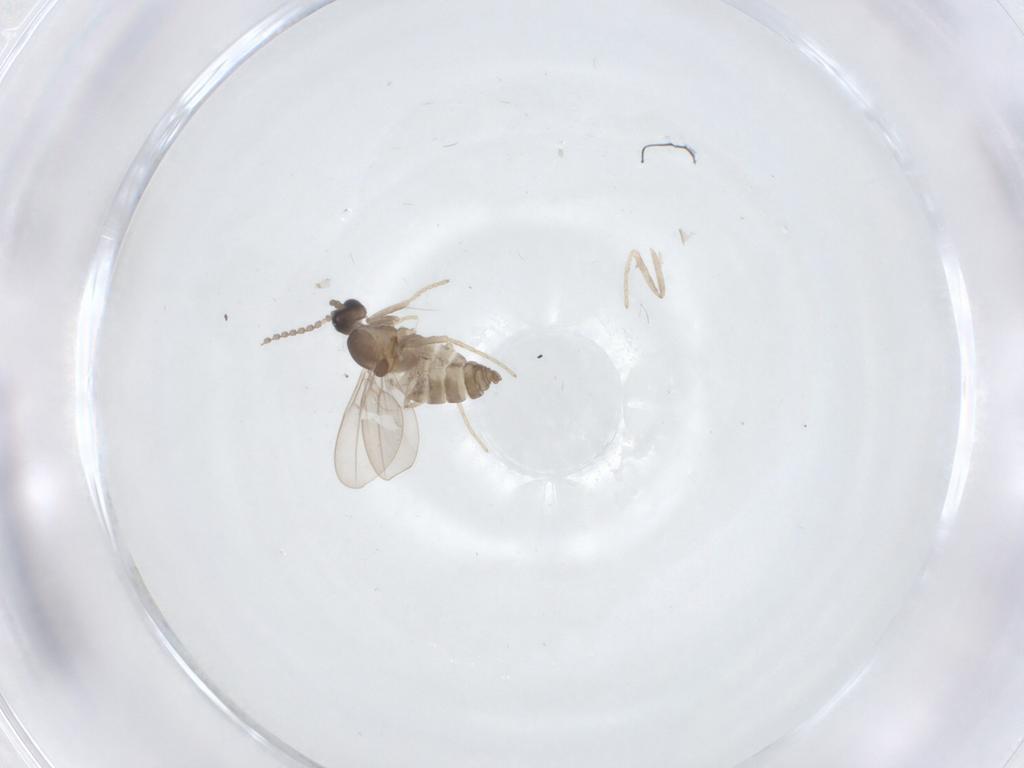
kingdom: Animalia
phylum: Arthropoda
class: Insecta
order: Diptera
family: Cecidomyiidae
